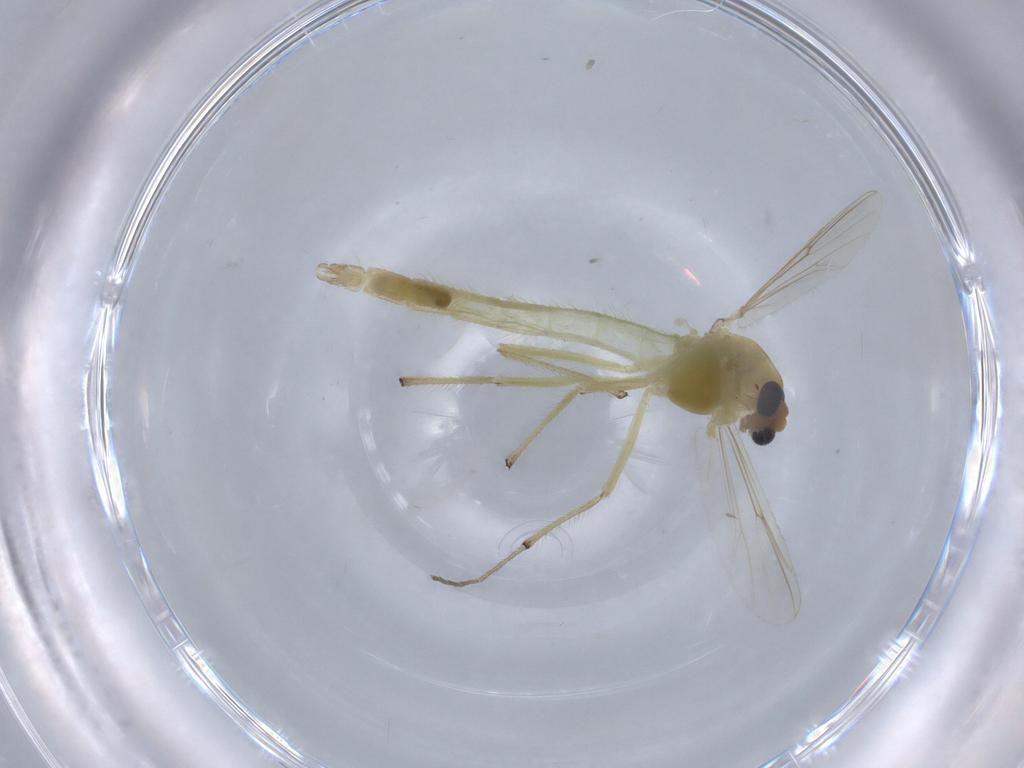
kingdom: Animalia
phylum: Arthropoda
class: Insecta
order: Diptera
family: Chironomidae
